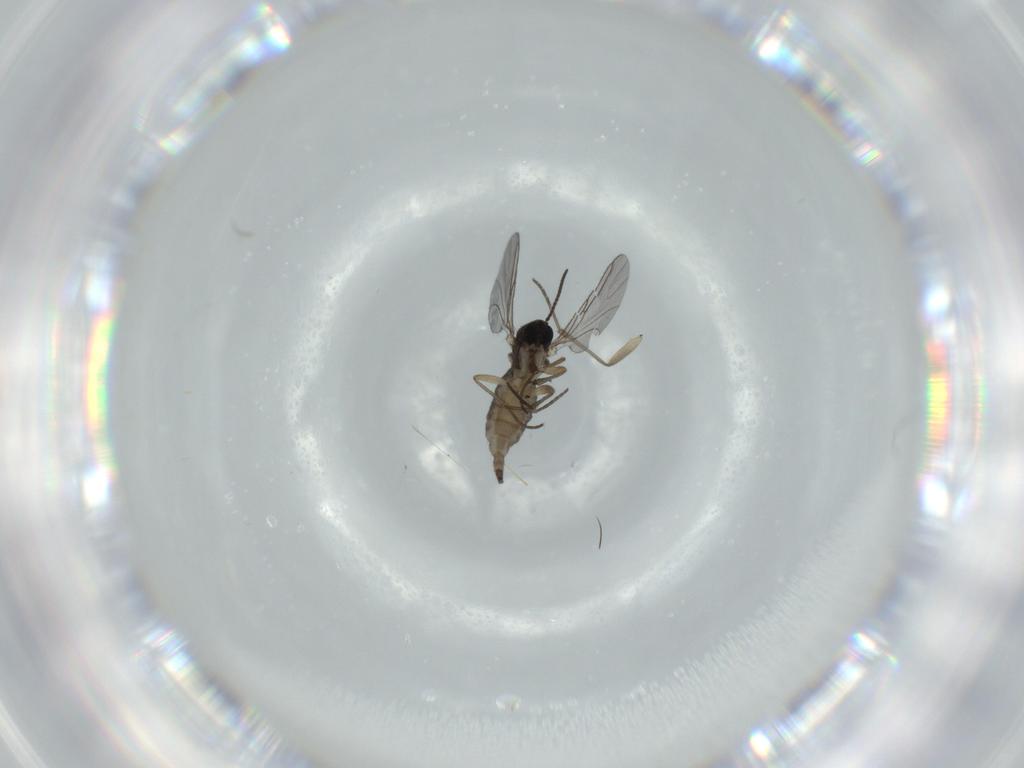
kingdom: Animalia
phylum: Arthropoda
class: Insecta
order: Diptera
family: Sciaridae
